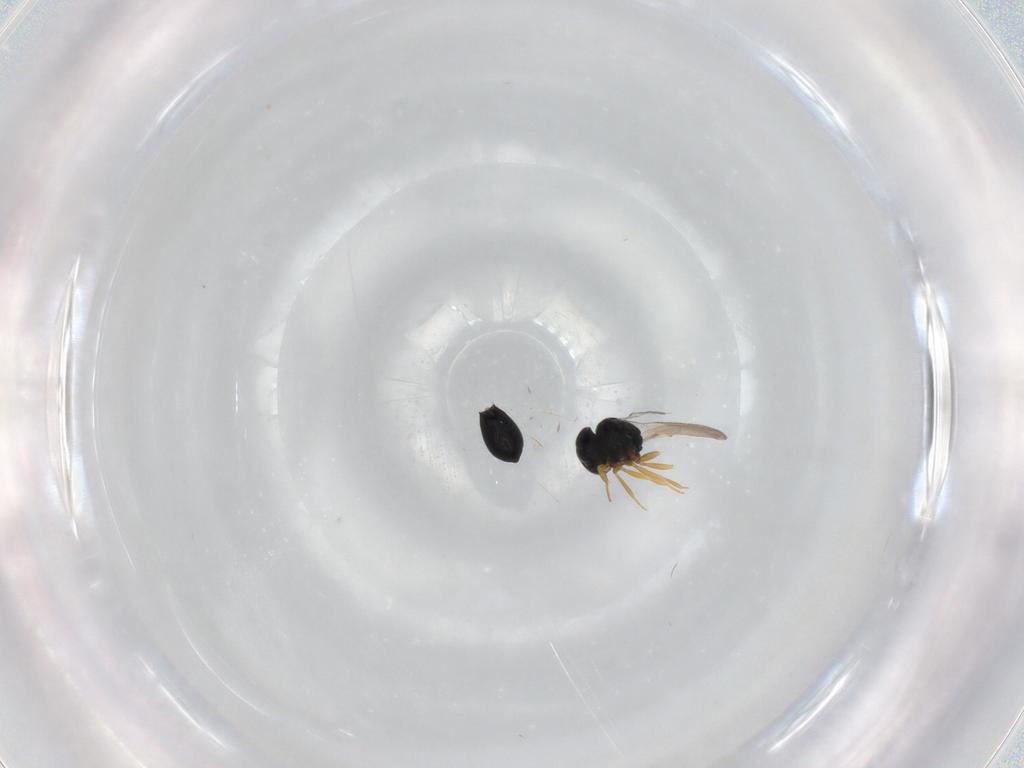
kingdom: Animalia
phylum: Arthropoda
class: Insecta
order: Hymenoptera
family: Scelionidae
